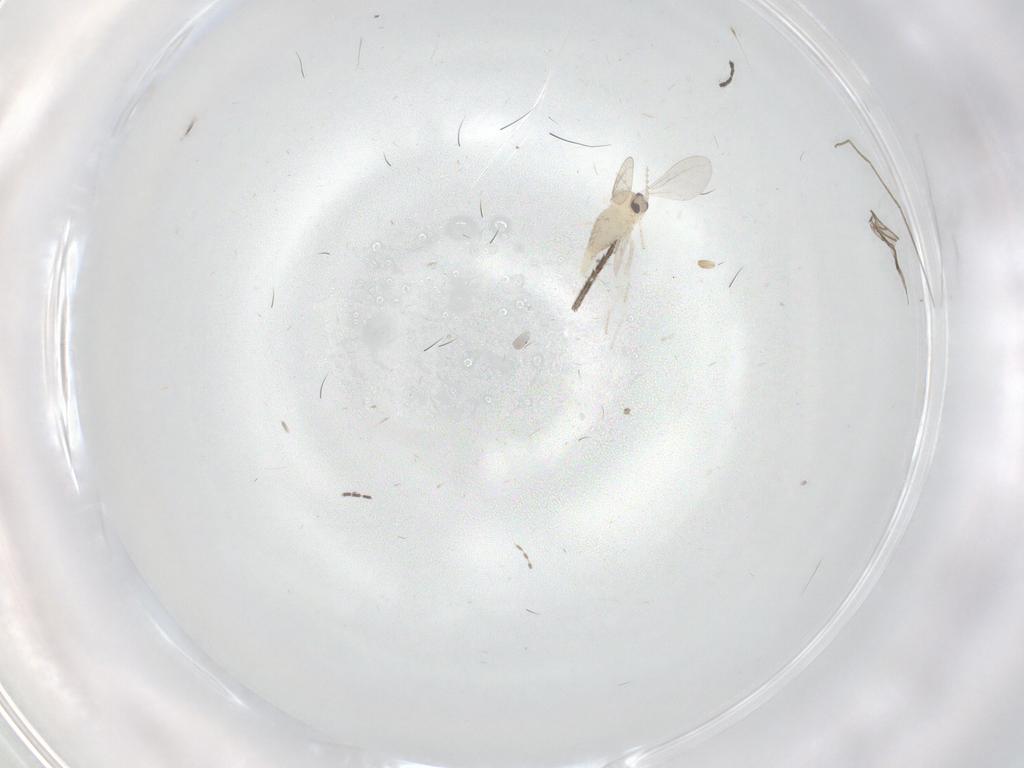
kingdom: Animalia
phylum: Arthropoda
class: Insecta
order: Diptera
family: Cecidomyiidae
